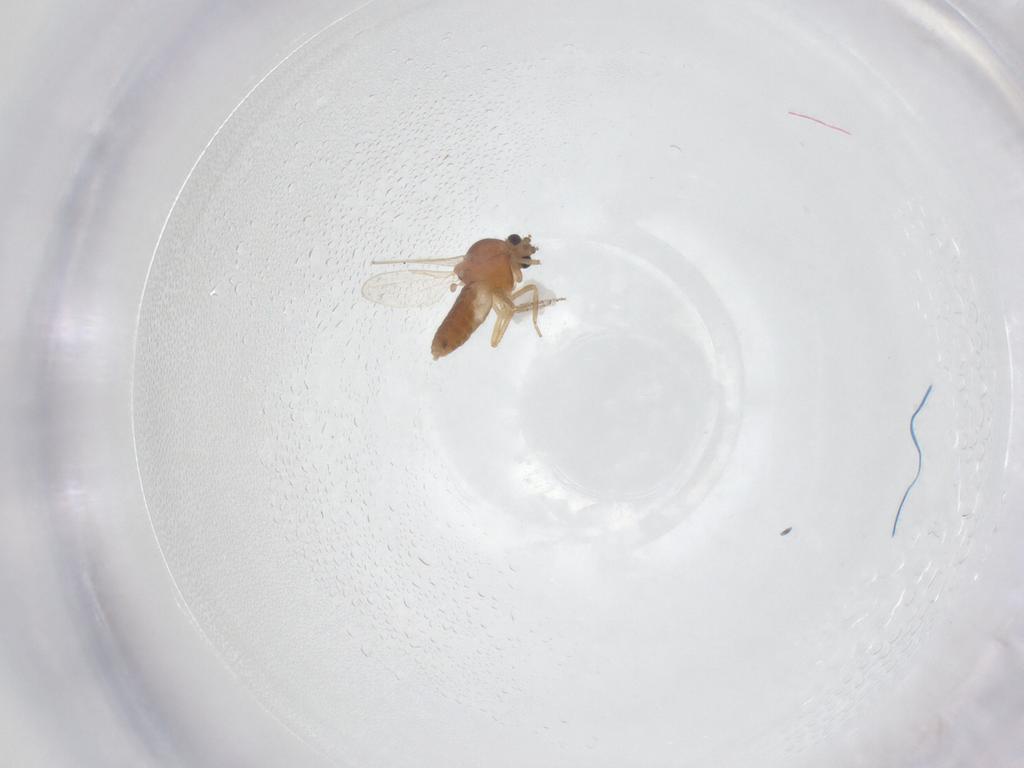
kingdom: Animalia
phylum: Arthropoda
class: Insecta
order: Diptera
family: Ceratopogonidae
